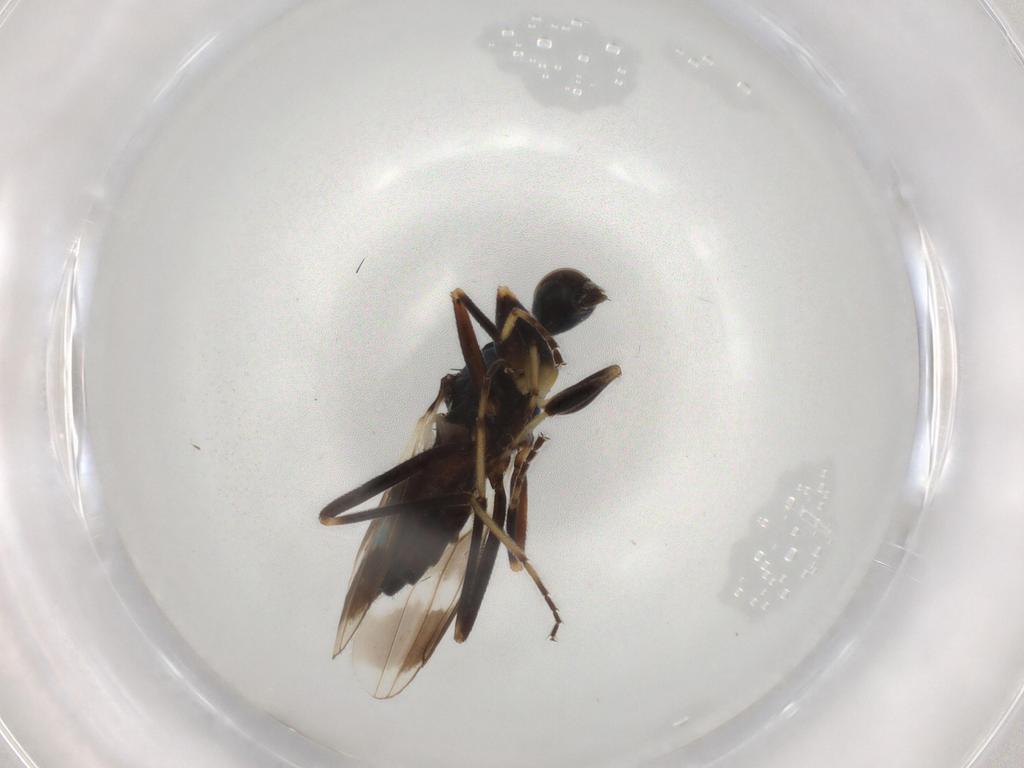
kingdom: Animalia
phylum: Arthropoda
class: Insecta
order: Diptera
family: Hybotidae
